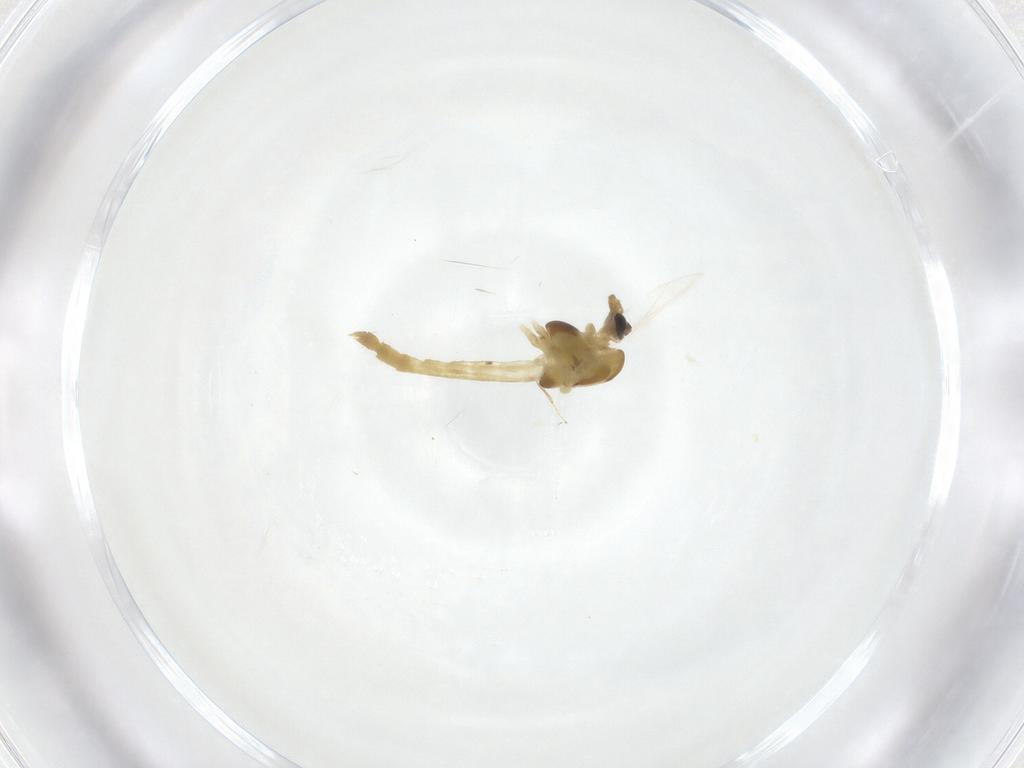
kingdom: Animalia
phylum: Arthropoda
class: Insecta
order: Diptera
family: Chironomidae
